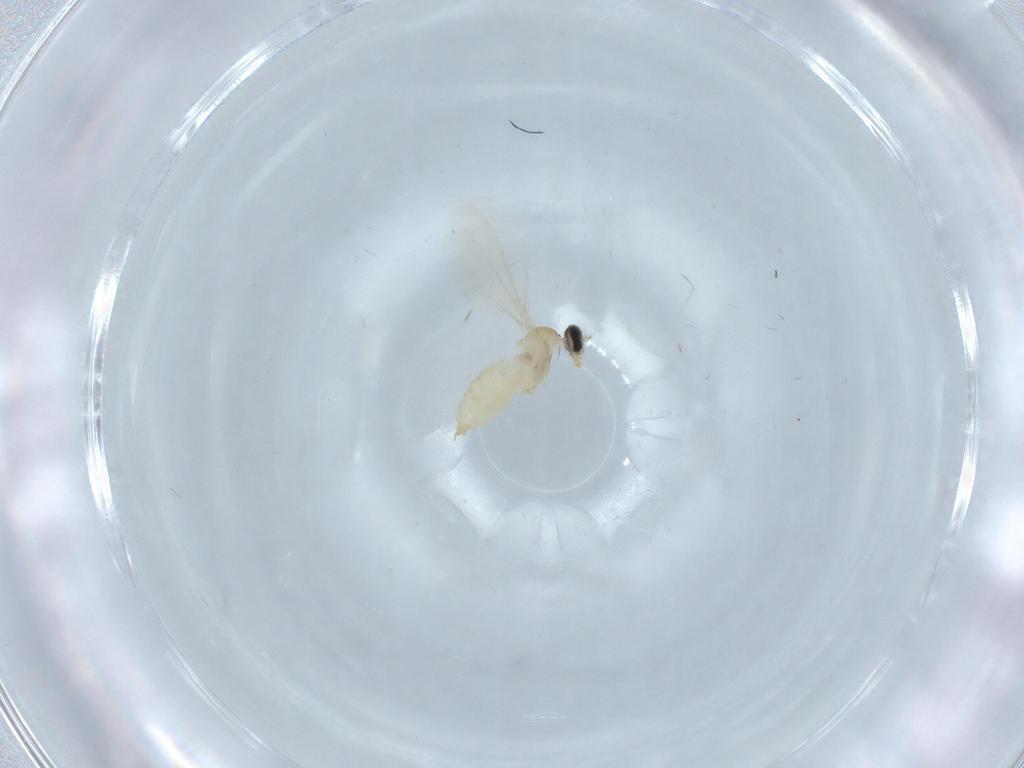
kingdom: Animalia
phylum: Arthropoda
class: Insecta
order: Diptera
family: Cecidomyiidae
